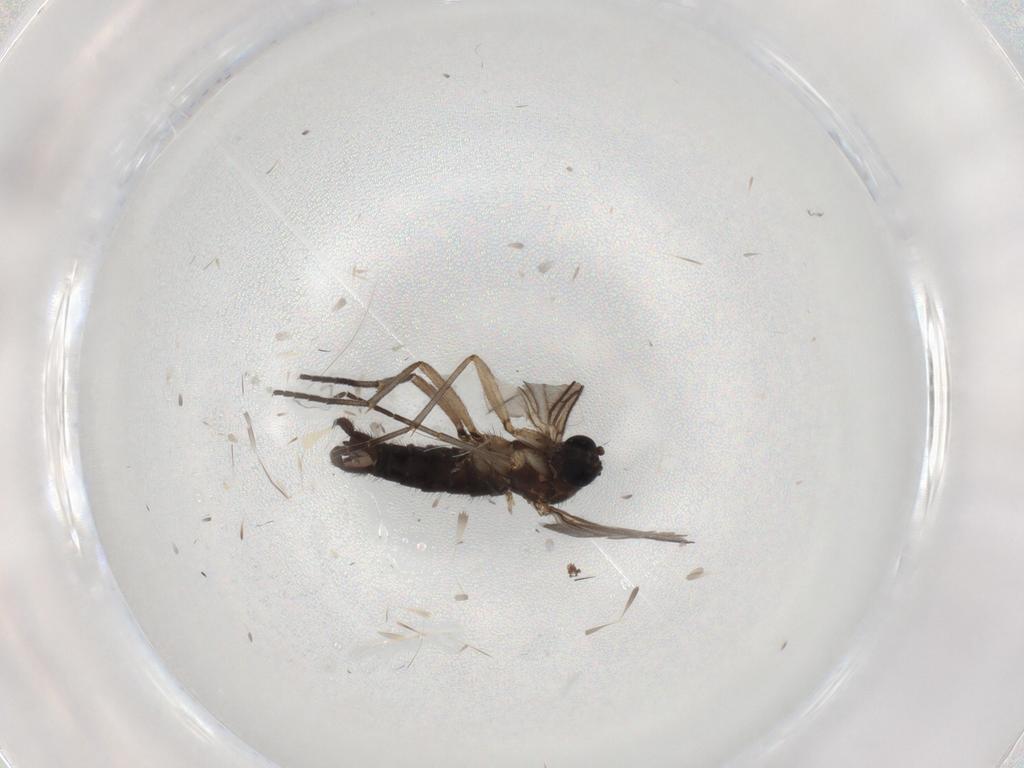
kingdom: Animalia
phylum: Arthropoda
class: Insecta
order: Diptera
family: Sciaridae
